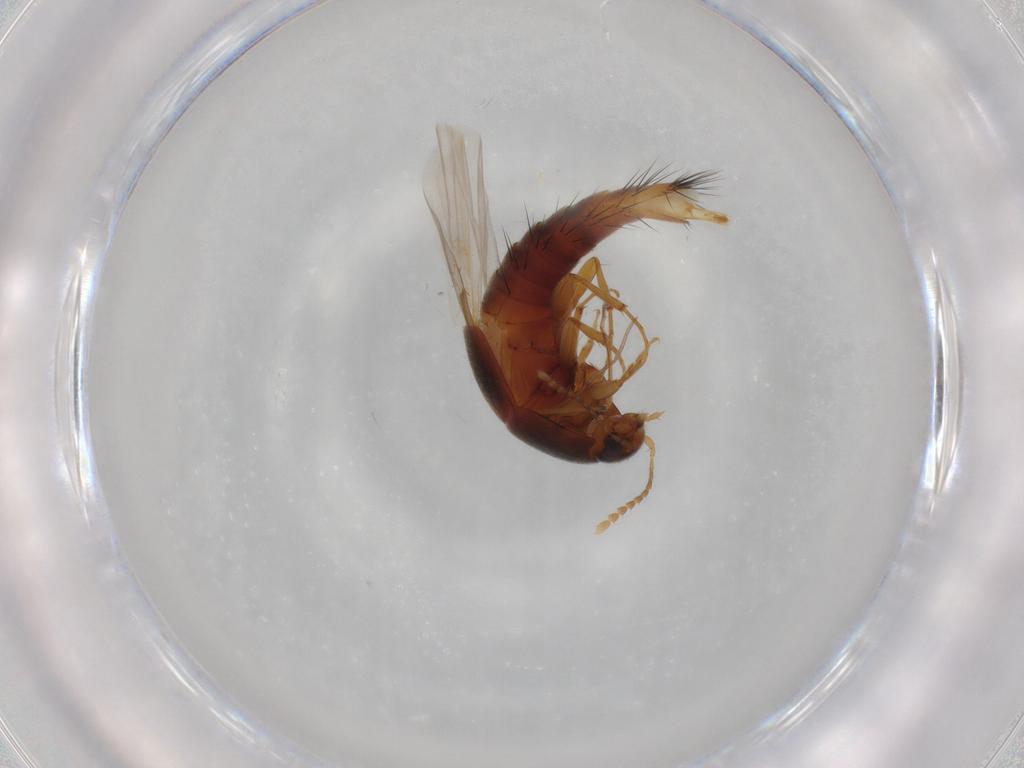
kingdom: Animalia
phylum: Arthropoda
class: Insecta
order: Coleoptera
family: Staphylinidae
